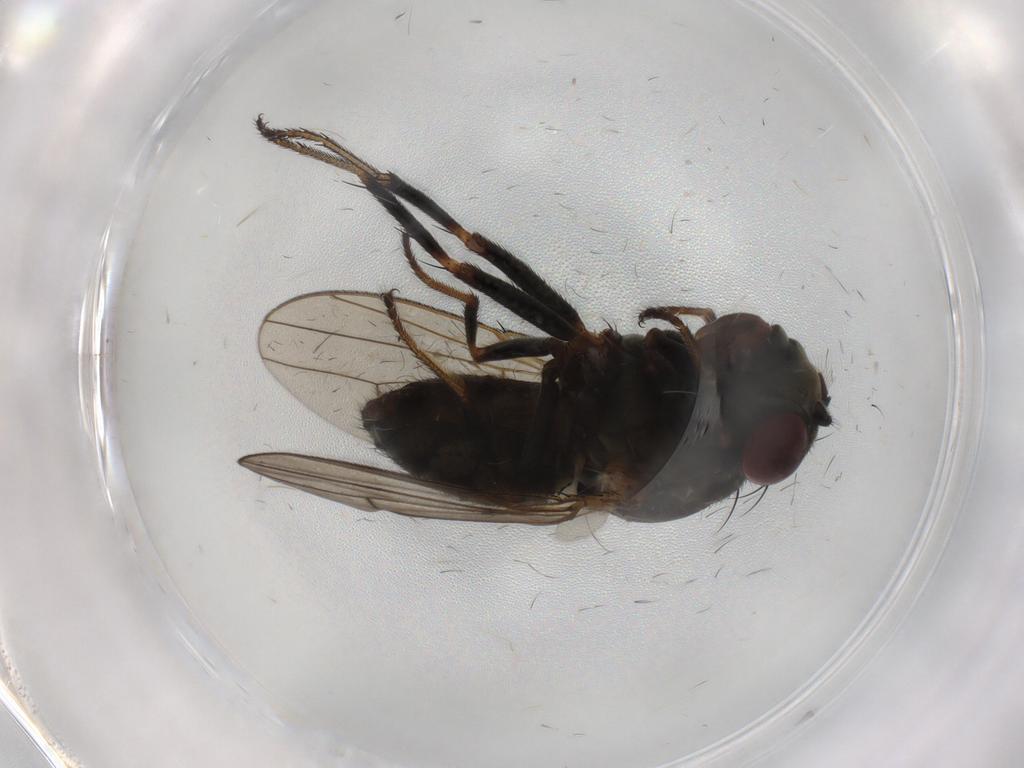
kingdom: Animalia
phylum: Arthropoda
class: Insecta
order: Diptera
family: Ephydridae
